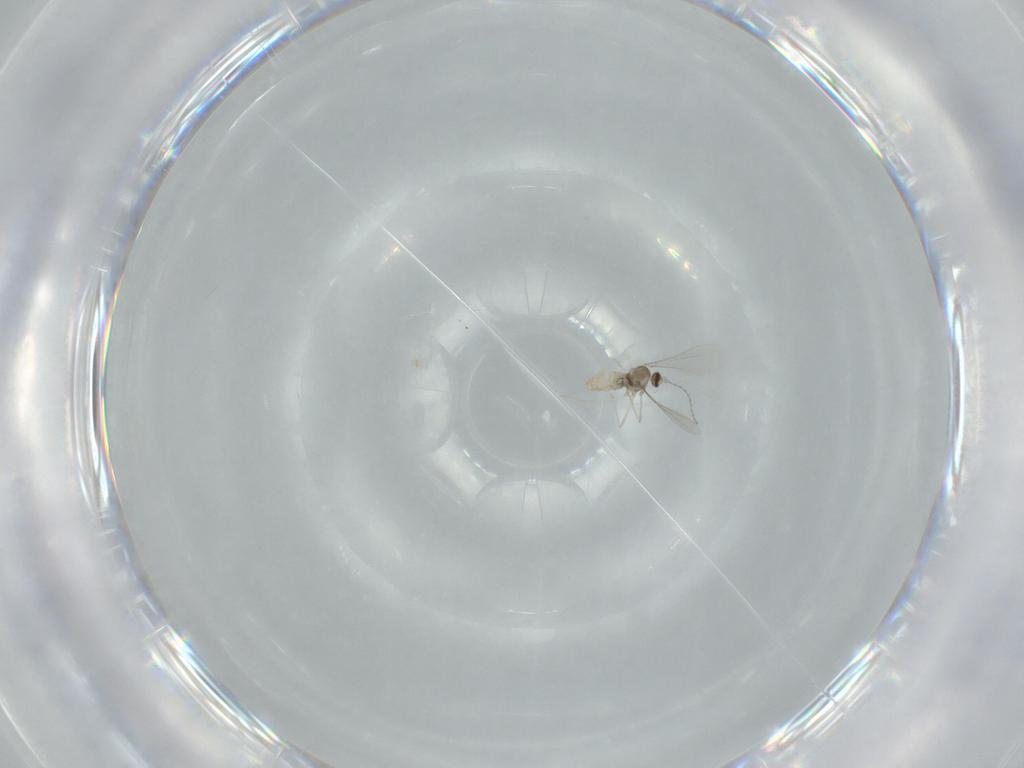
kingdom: Animalia
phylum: Arthropoda
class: Insecta
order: Diptera
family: Cecidomyiidae
